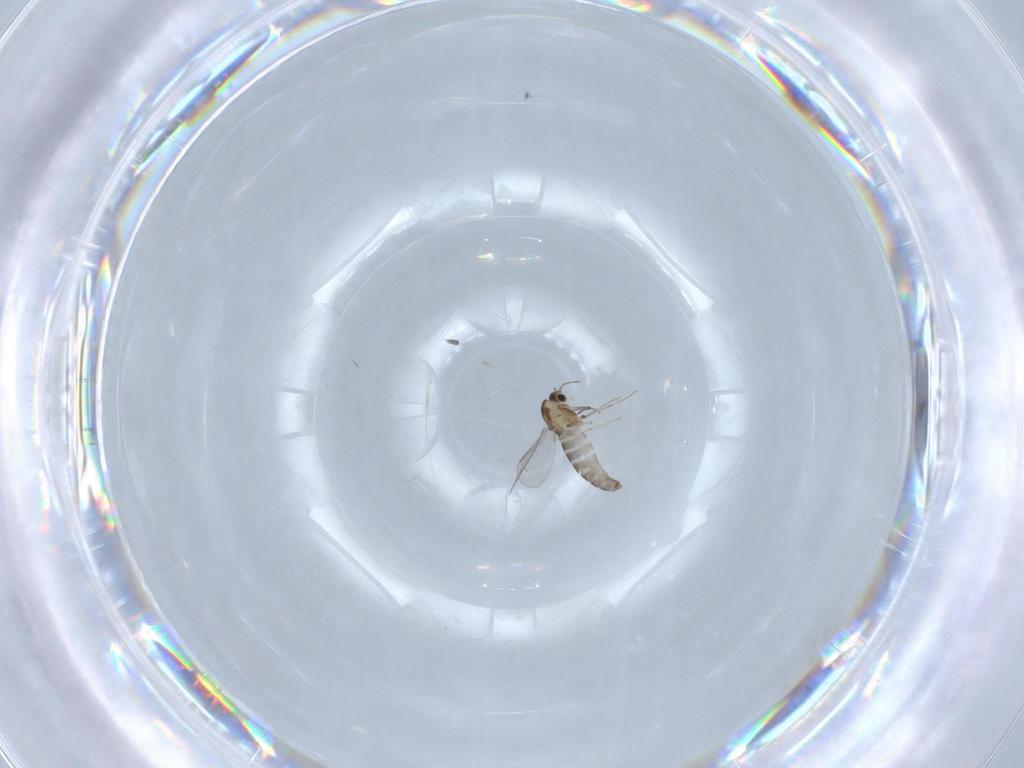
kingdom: Animalia
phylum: Arthropoda
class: Insecta
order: Diptera
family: Chironomidae
